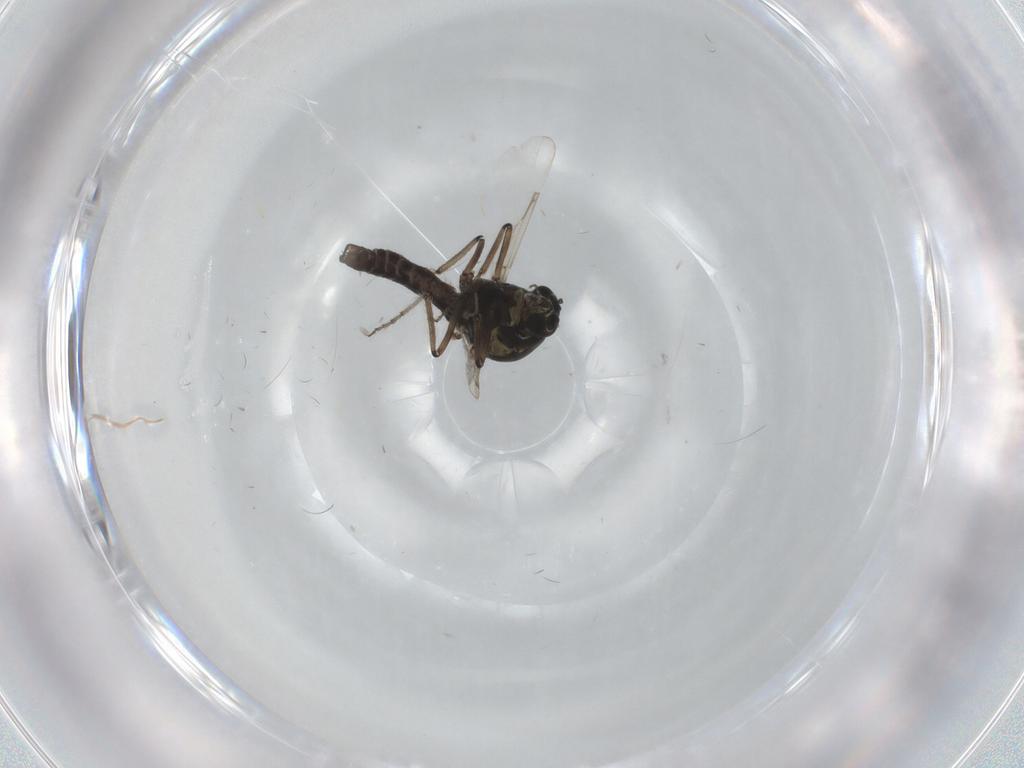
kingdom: Animalia
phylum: Arthropoda
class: Insecta
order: Diptera
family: Ceratopogonidae
